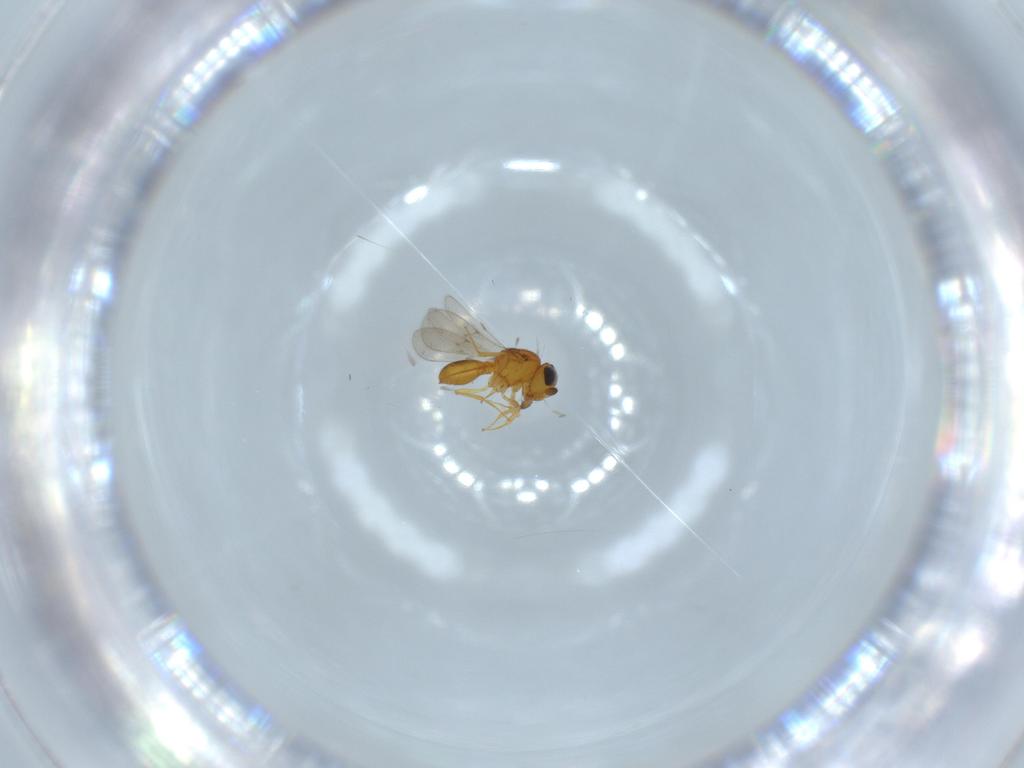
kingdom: Animalia
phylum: Arthropoda
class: Insecta
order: Hymenoptera
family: Scelionidae
